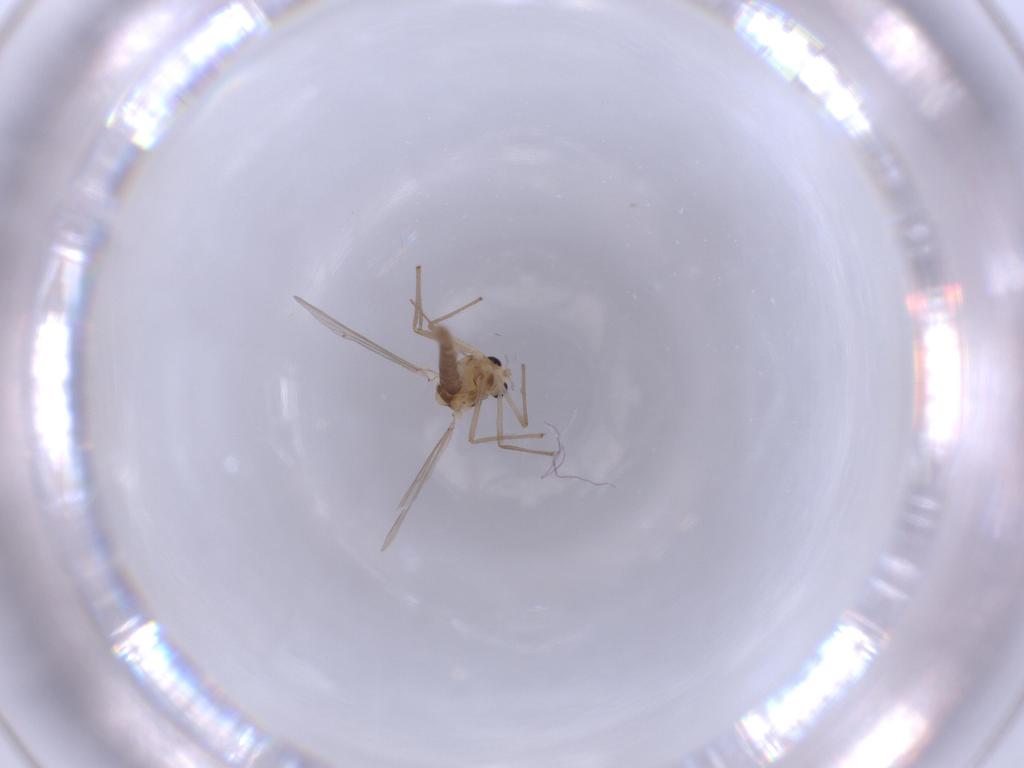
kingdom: Animalia
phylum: Arthropoda
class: Insecta
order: Diptera
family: Chironomidae
